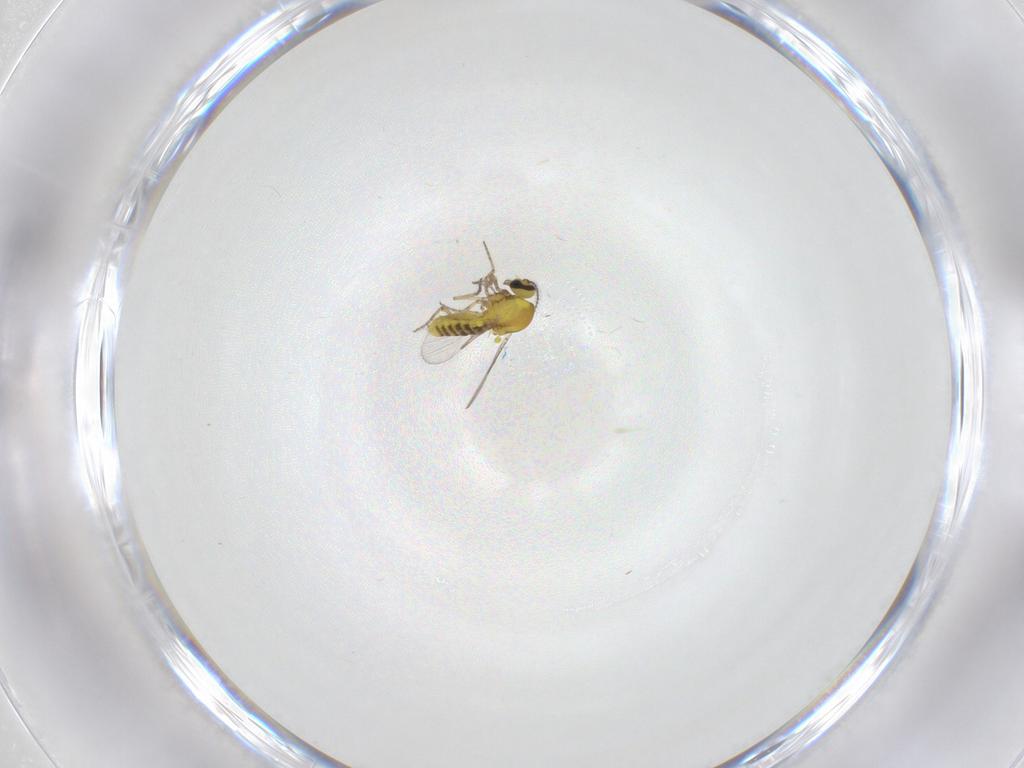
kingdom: Animalia
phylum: Arthropoda
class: Insecta
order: Diptera
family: Ceratopogonidae
